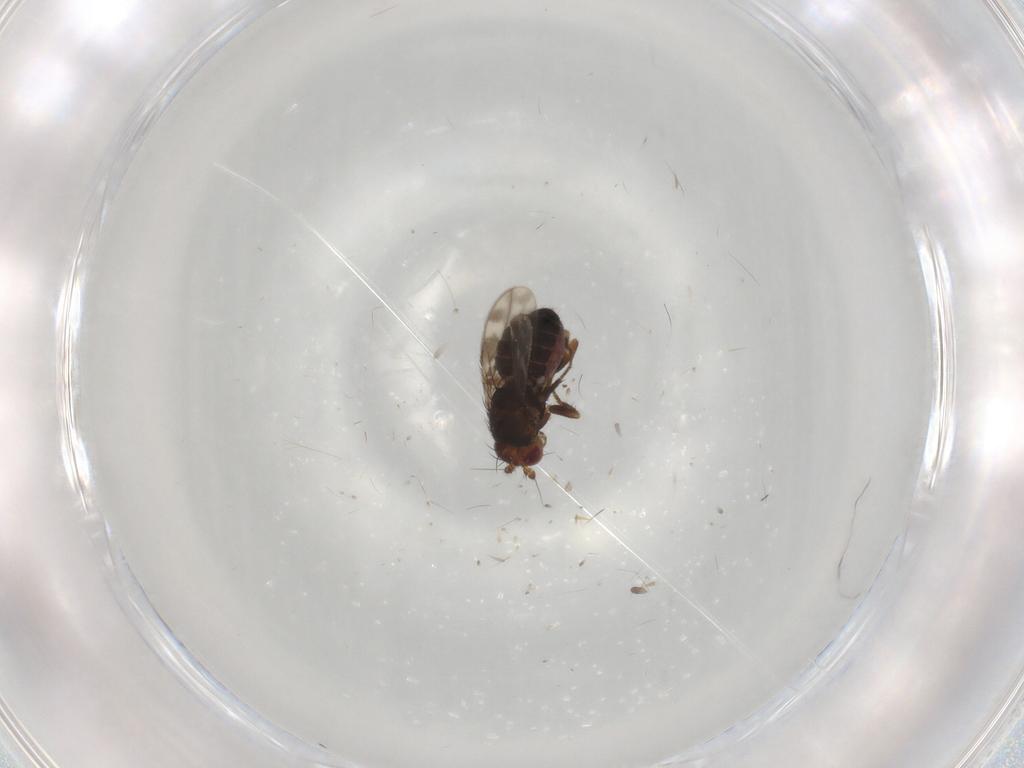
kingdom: Animalia
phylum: Arthropoda
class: Insecta
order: Diptera
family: Sphaeroceridae
